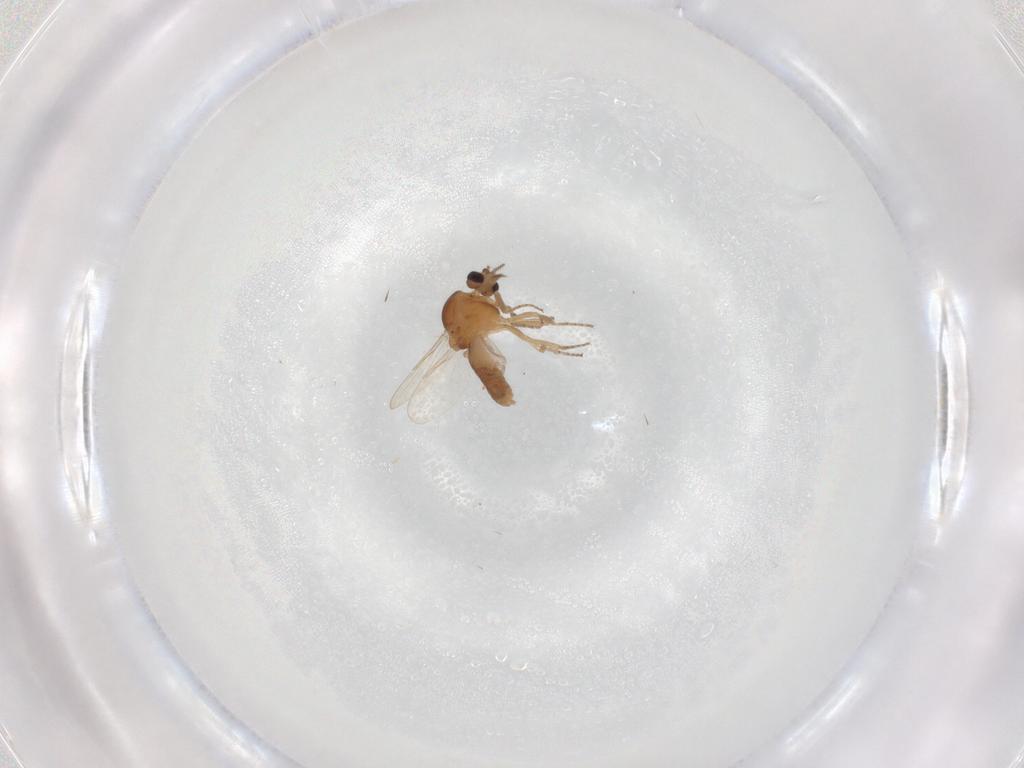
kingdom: Animalia
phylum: Arthropoda
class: Insecta
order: Diptera
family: Ceratopogonidae
